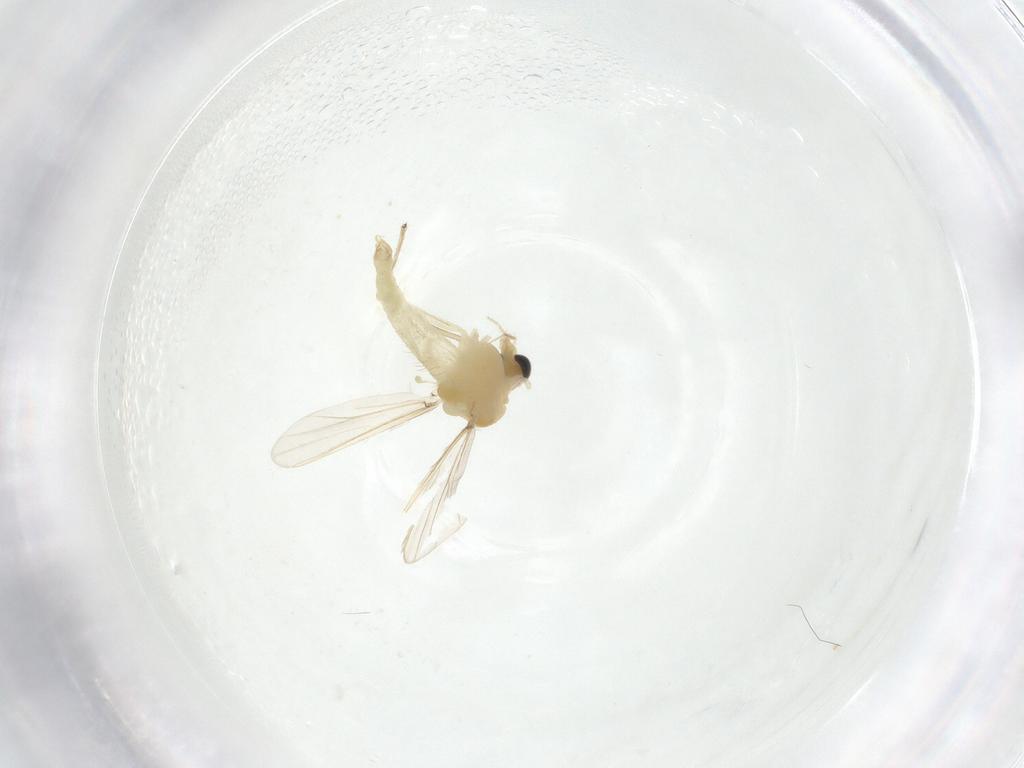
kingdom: Animalia
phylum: Arthropoda
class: Insecta
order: Diptera
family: Chironomidae
